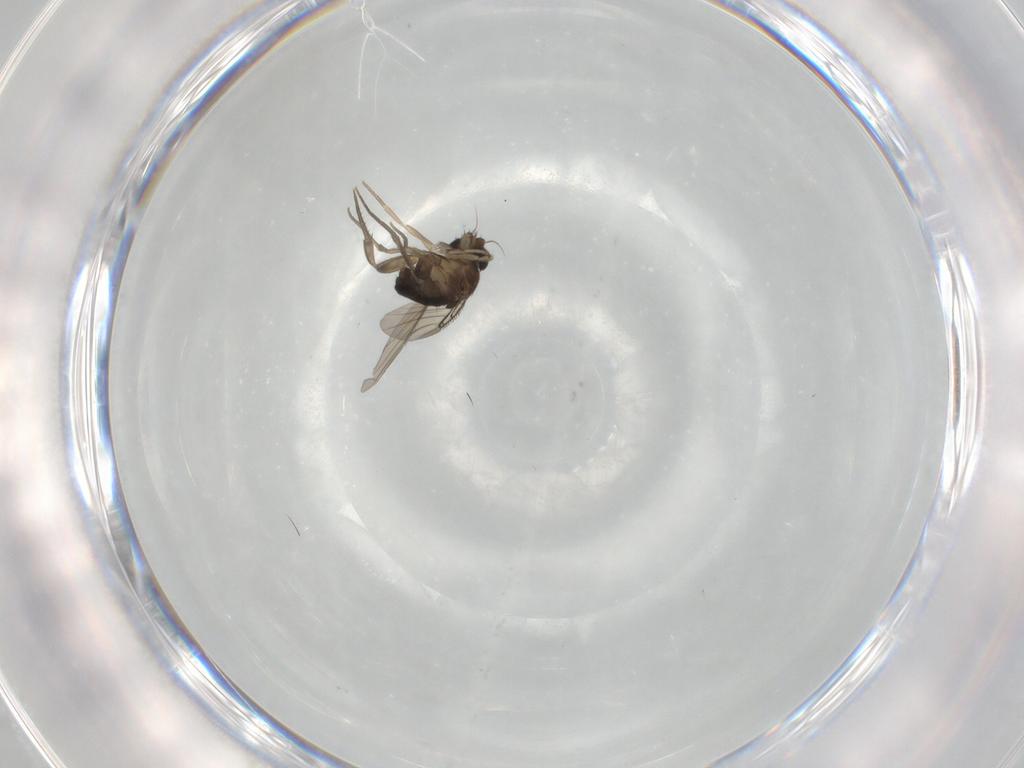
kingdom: Animalia
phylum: Arthropoda
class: Insecta
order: Diptera
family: Phoridae
